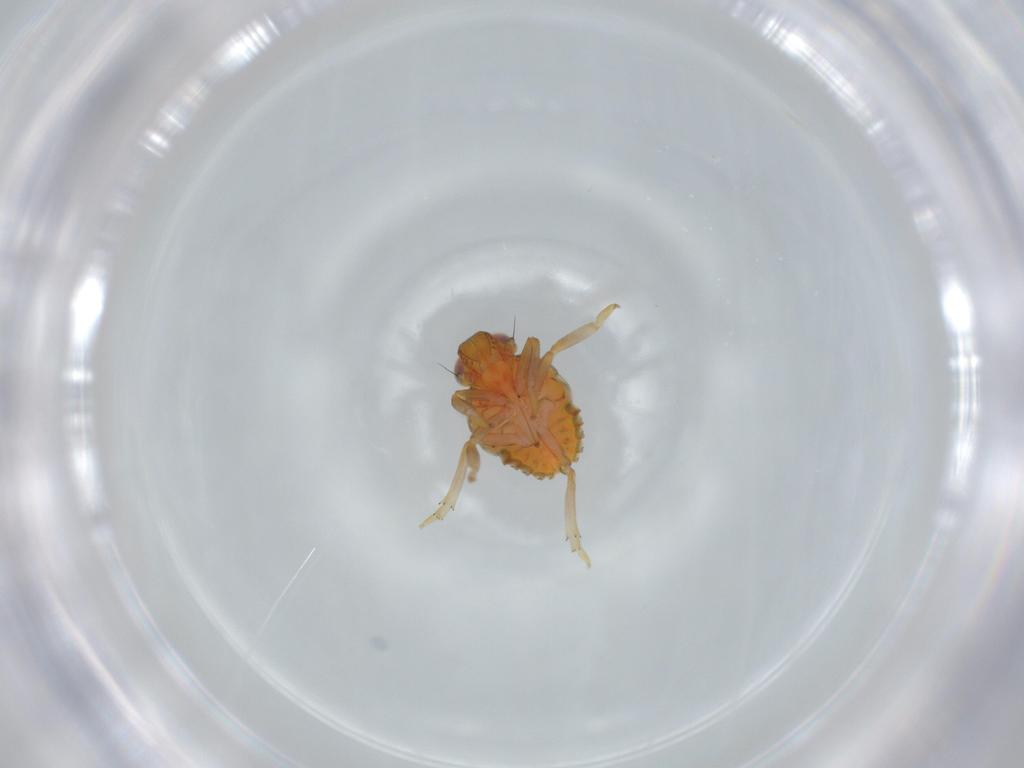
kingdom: Animalia
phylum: Arthropoda
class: Insecta
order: Hemiptera
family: Issidae
